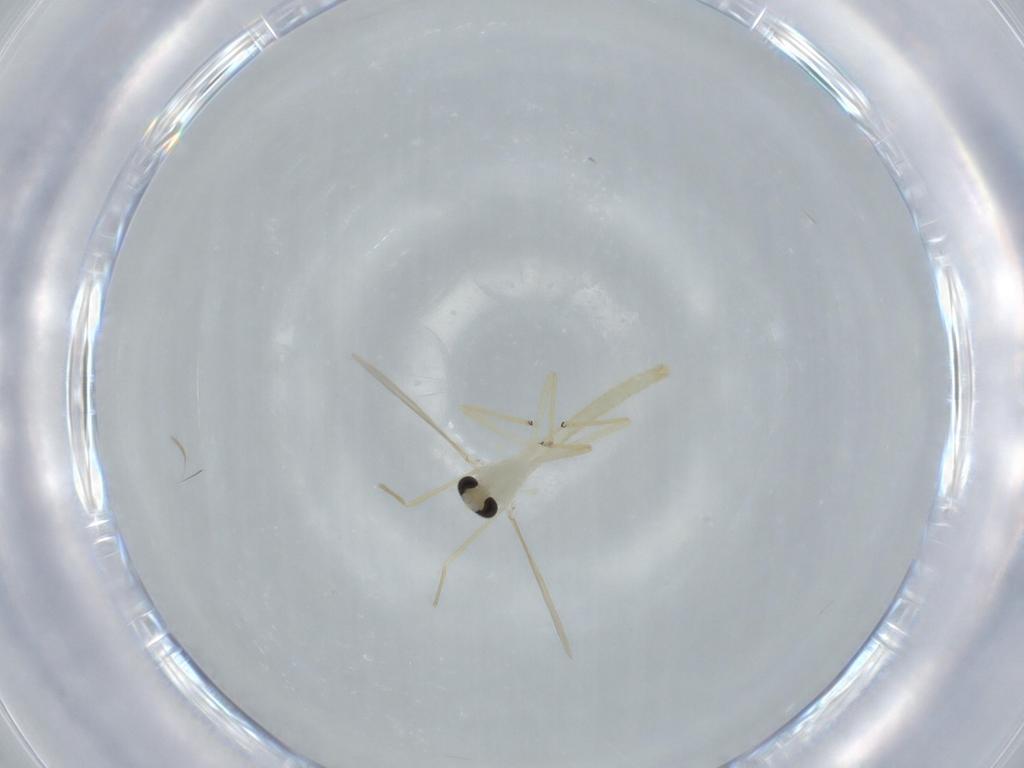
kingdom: Animalia
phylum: Arthropoda
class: Insecta
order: Diptera
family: Chironomidae
